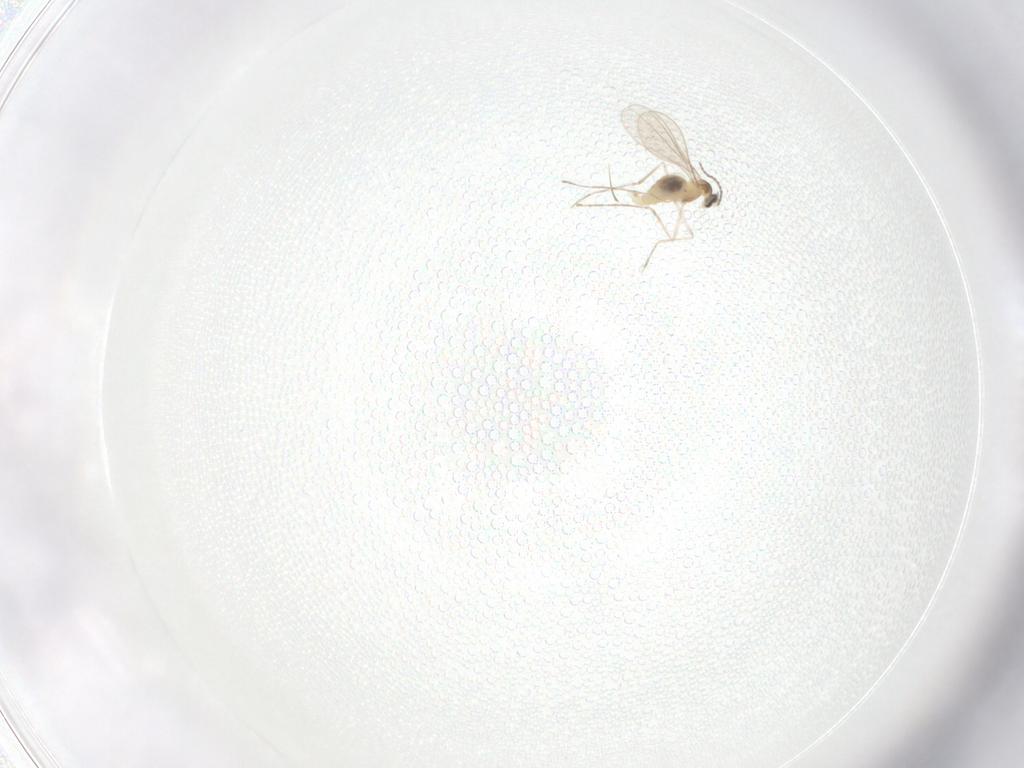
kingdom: Animalia
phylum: Arthropoda
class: Insecta
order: Diptera
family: Cecidomyiidae
